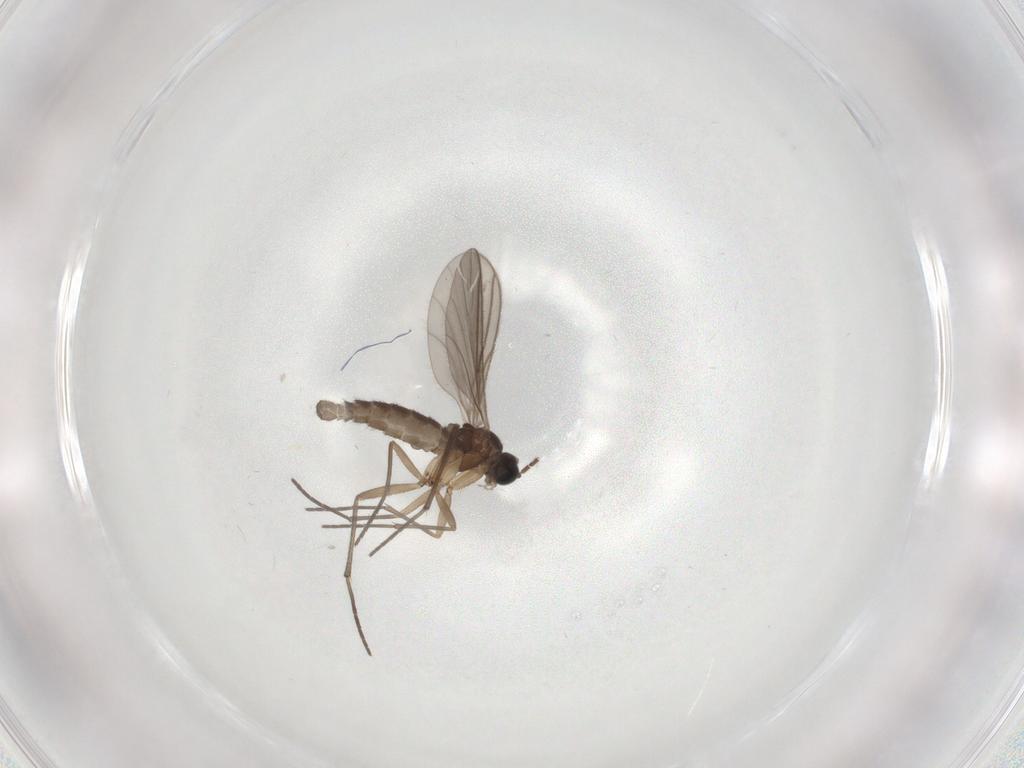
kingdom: Animalia
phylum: Arthropoda
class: Insecta
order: Diptera
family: Sciaridae
